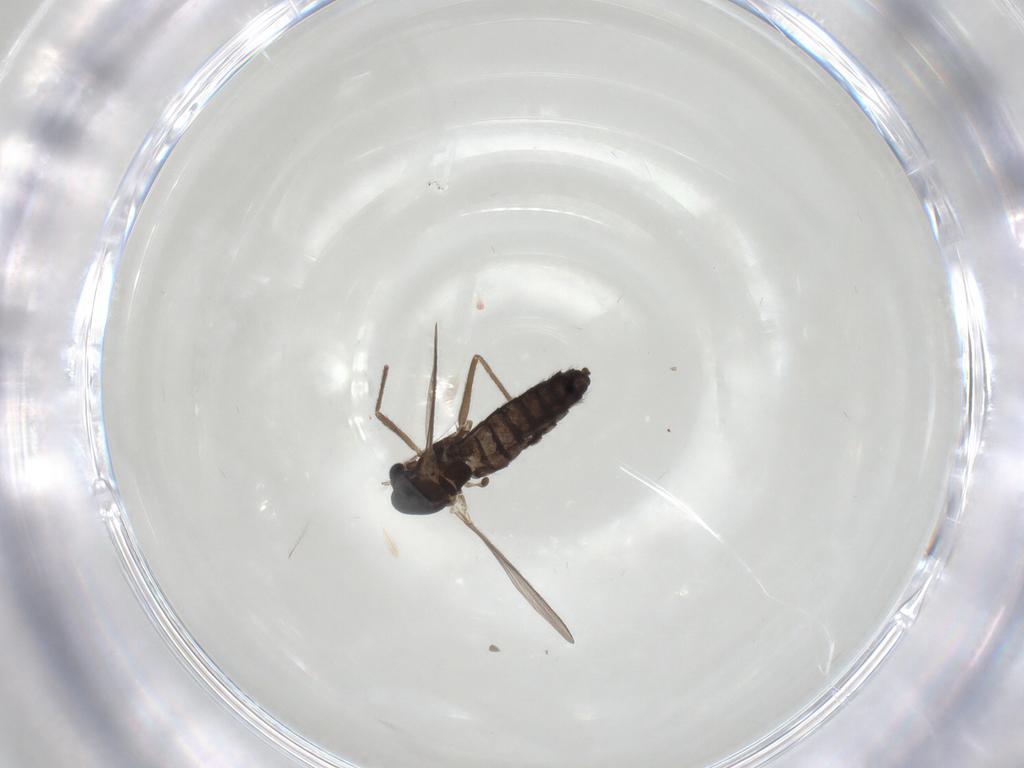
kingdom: Animalia
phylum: Arthropoda
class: Insecta
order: Diptera
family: Chironomidae
